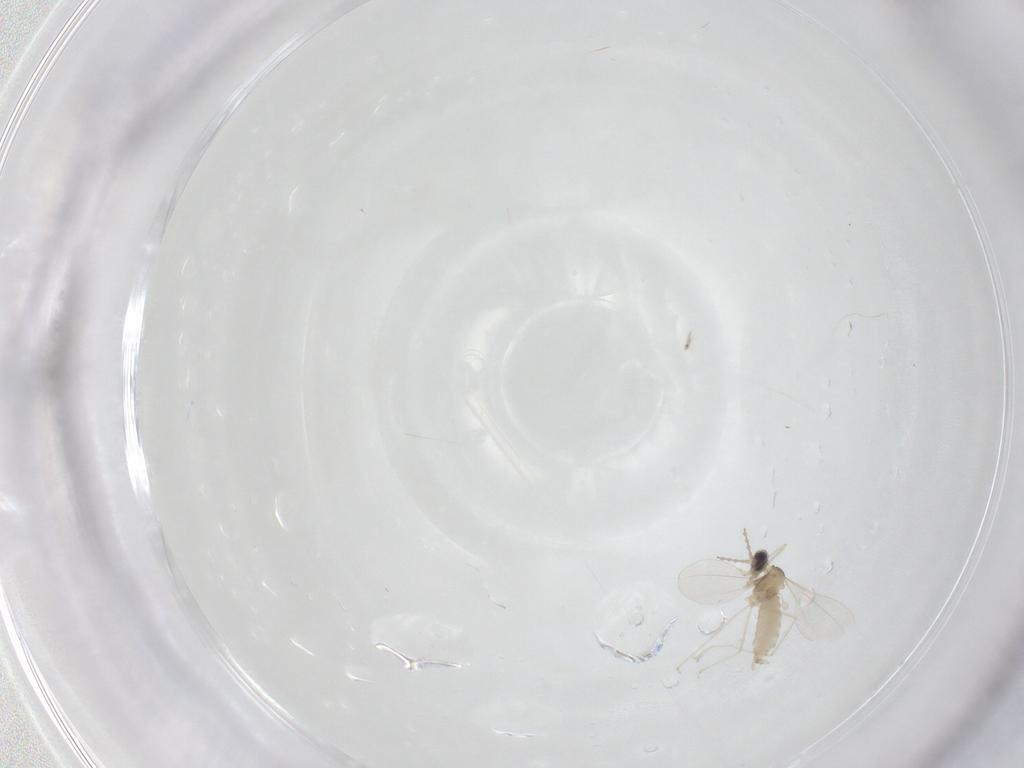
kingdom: Animalia
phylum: Arthropoda
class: Insecta
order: Diptera
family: Cecidomyiidae
